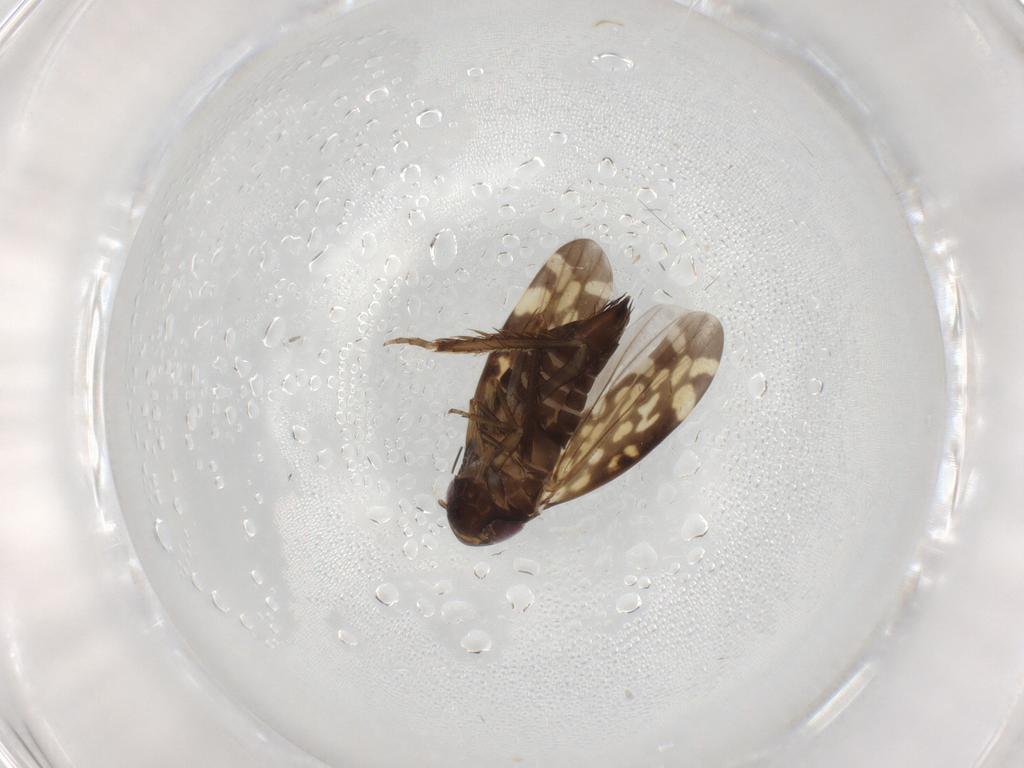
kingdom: Animalia
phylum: Arthropoda
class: Insecta
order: Hemiptera
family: Cicadellidae
